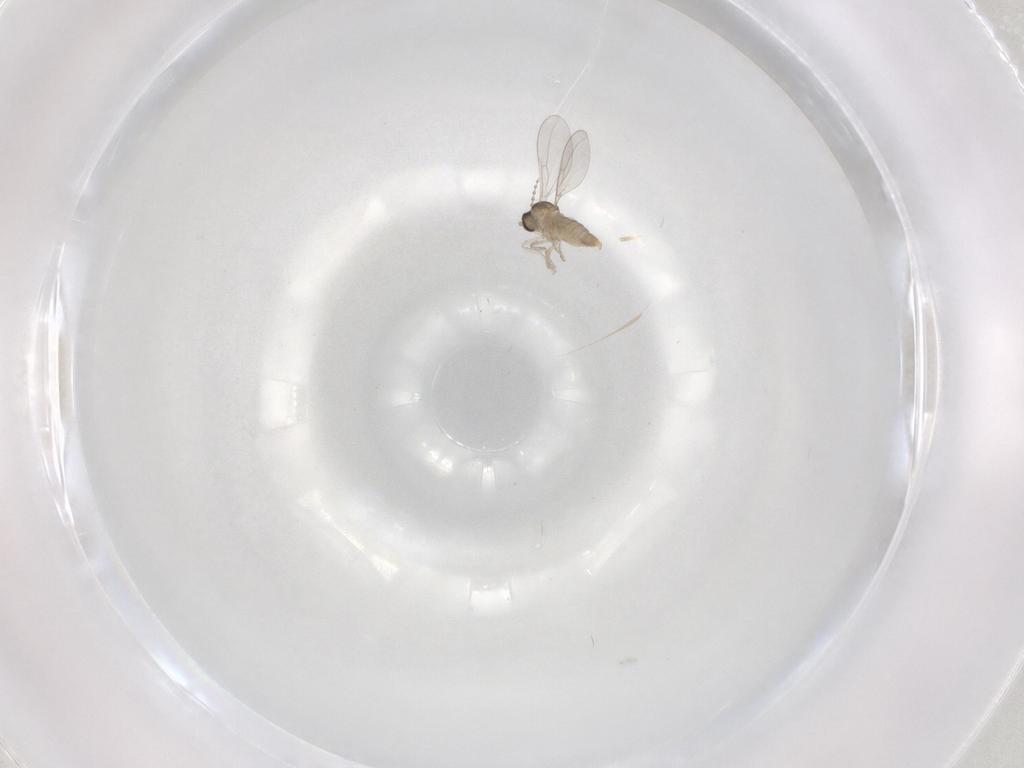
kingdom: Animalia
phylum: Arthropoda
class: Insecta
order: Diptera
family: Cecidomyiidae
